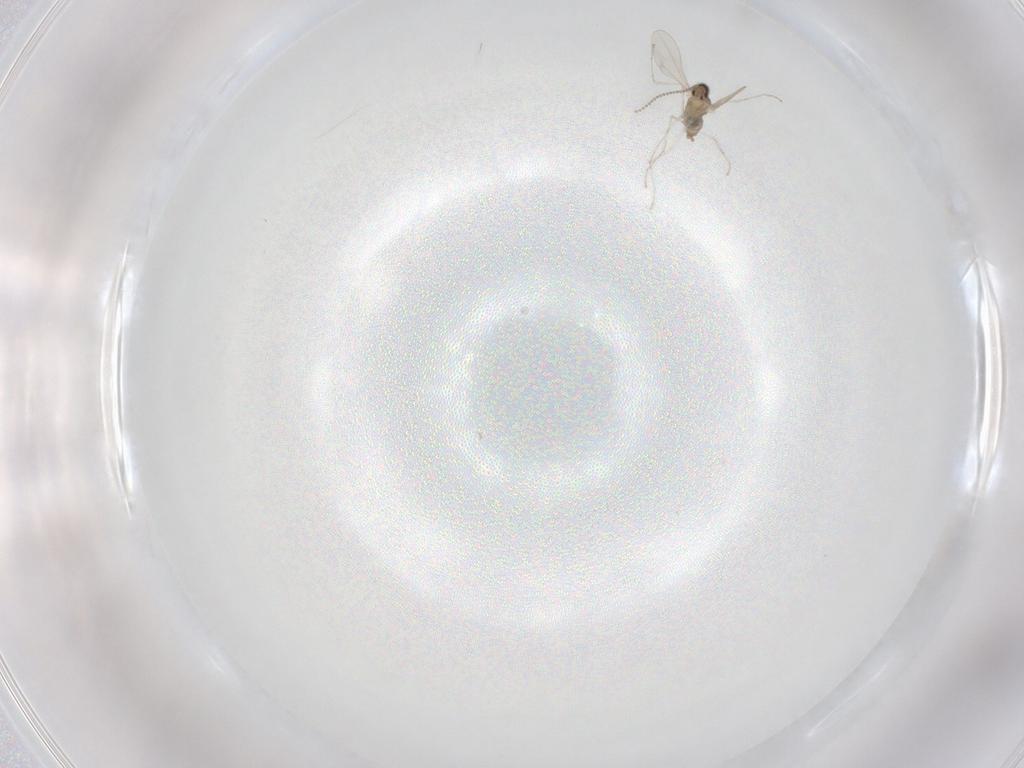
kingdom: Animalia
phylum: Arthropoda
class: Insecta
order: Diptera
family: Cecidomyiidae
